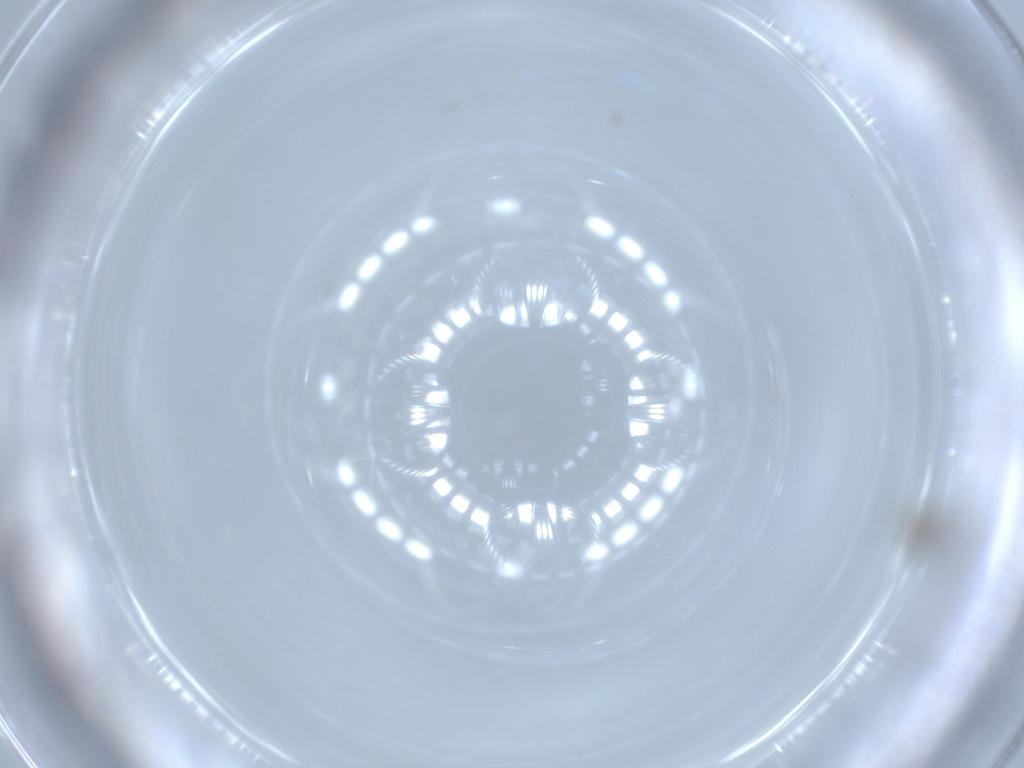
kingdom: Animalia
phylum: Arthropoda
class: Insecta
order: Diptera
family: Cecidomyiidae
